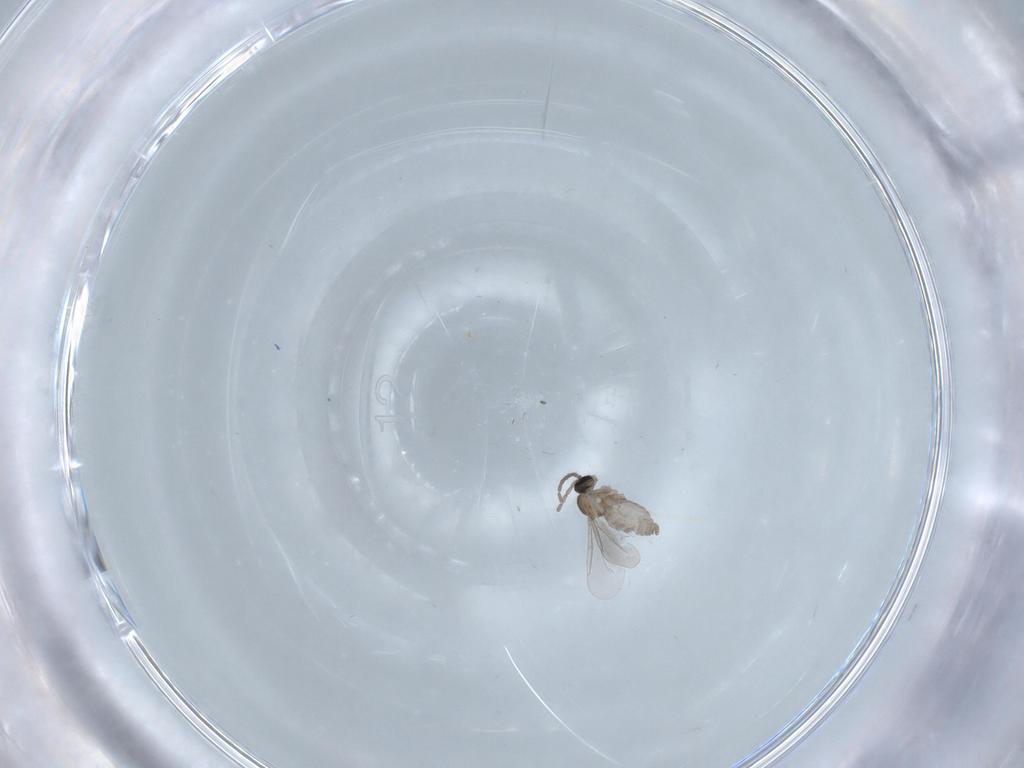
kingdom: Animalia
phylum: Arthropoda
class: Insecta
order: Diptera
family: Cecidomyiidae
